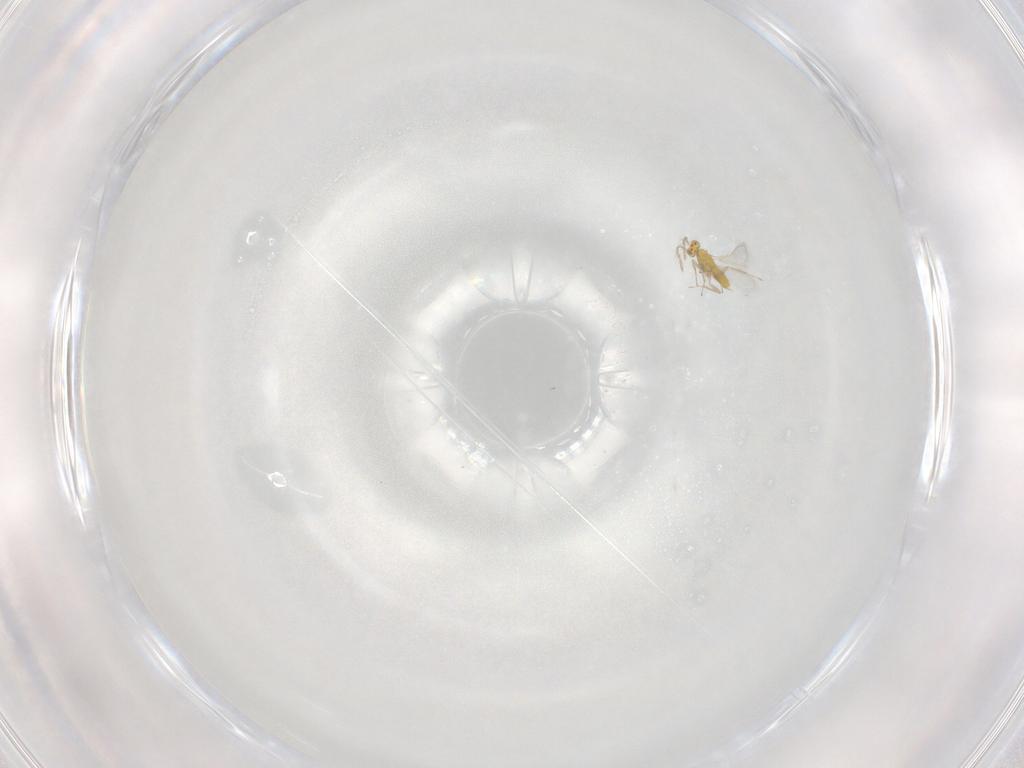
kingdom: Animalia
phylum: Arthropoda
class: Insecta
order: Hymenoptera
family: Aphelinidae
